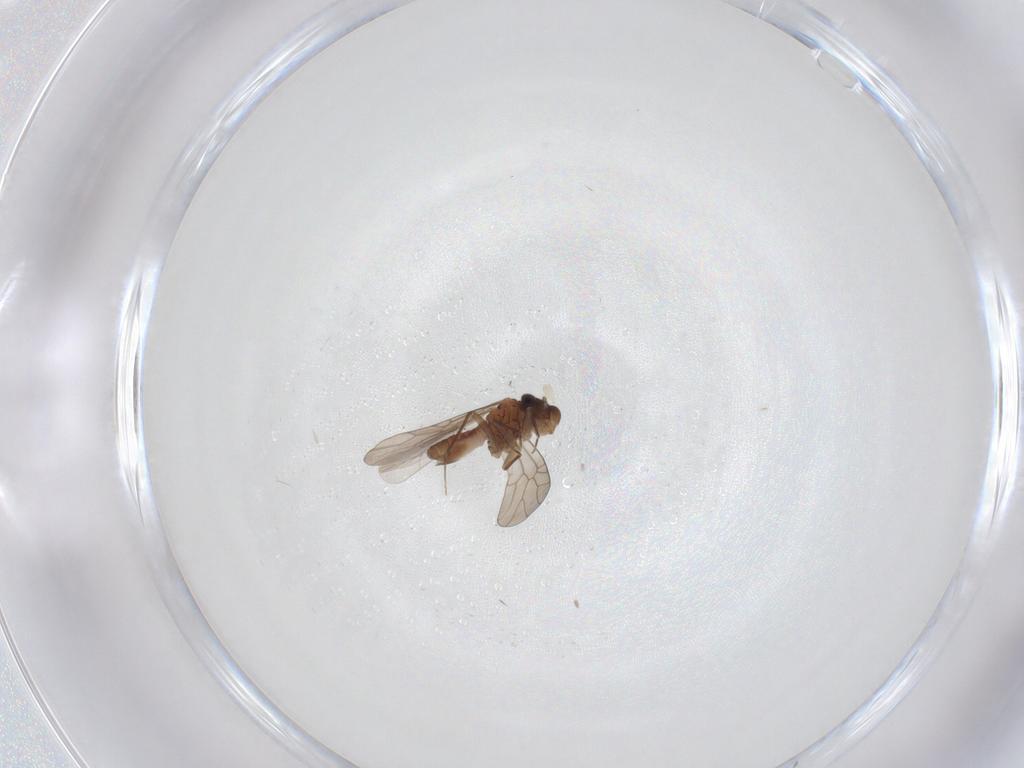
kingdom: Animalia
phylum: Arthropoda
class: Insecta
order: Psocodea
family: Lepidopsocidae
